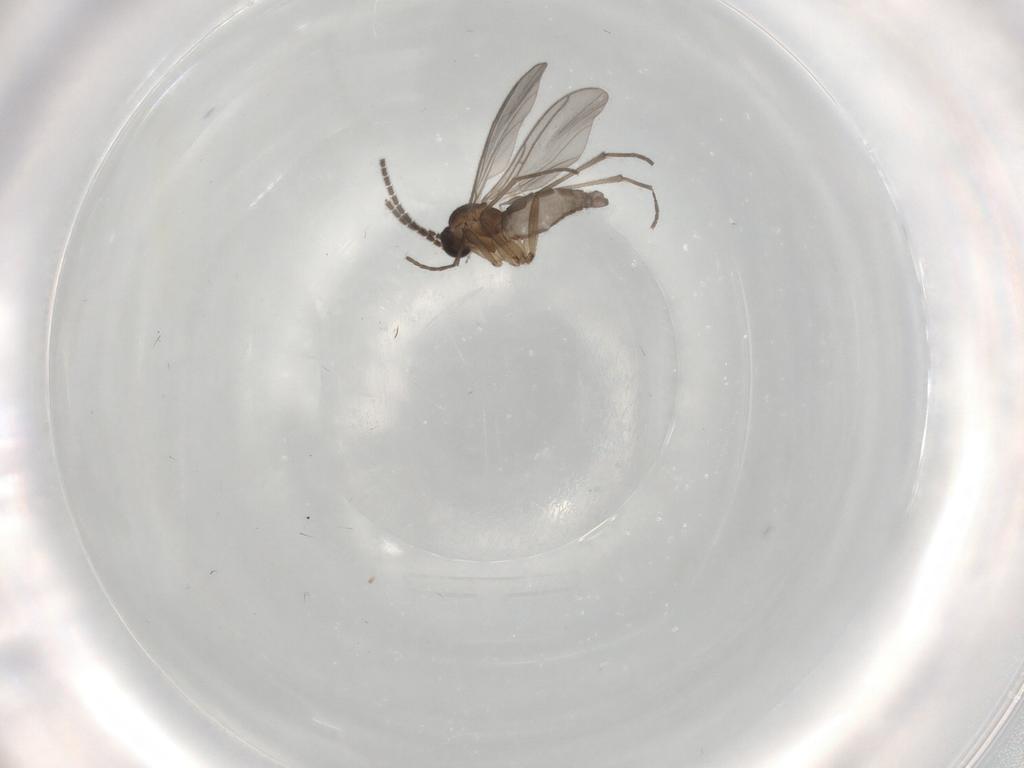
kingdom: Animalia
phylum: Arthropoda
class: Insecta
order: Diptera
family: Sciaridae
